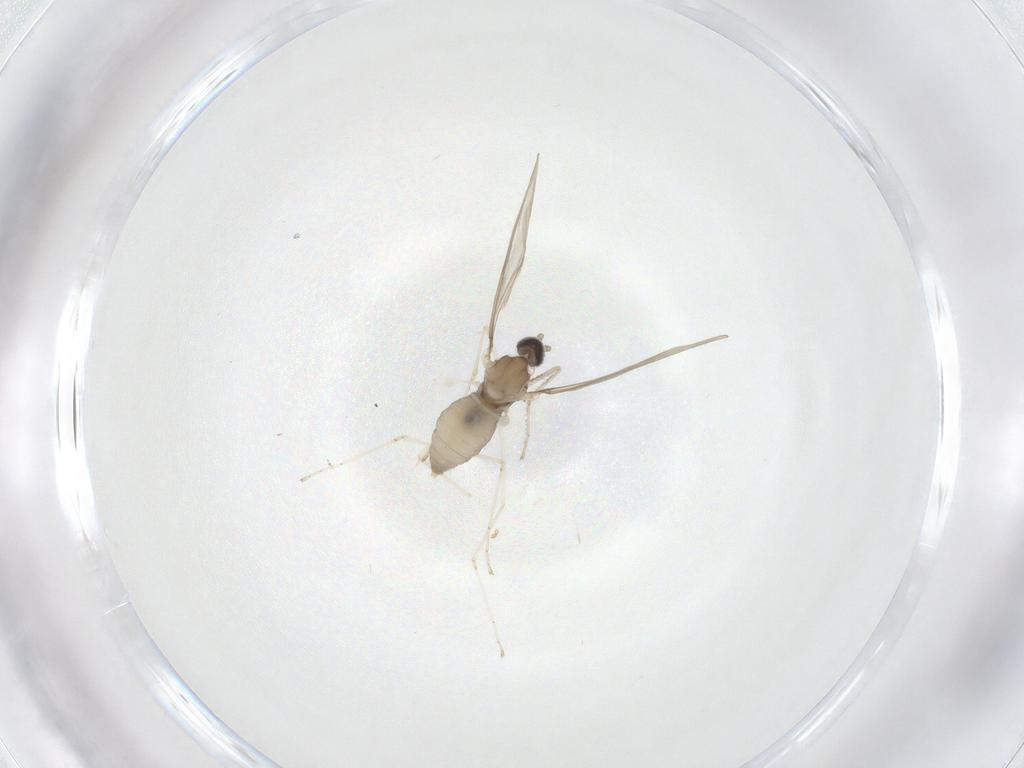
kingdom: Animalia
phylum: Arthropoda
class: Insecta
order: Diptera
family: Cecidomyiidae
